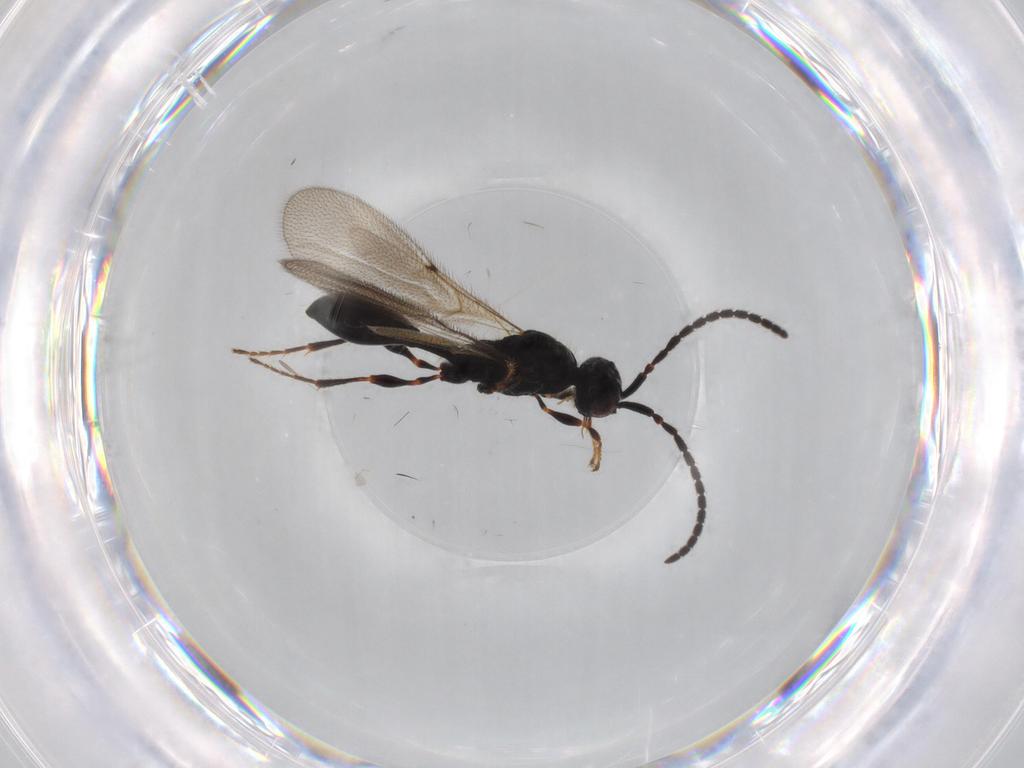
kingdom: Animalia
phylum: Arthropoda
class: Insecta
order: Hymenoptera
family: Diapriidae
